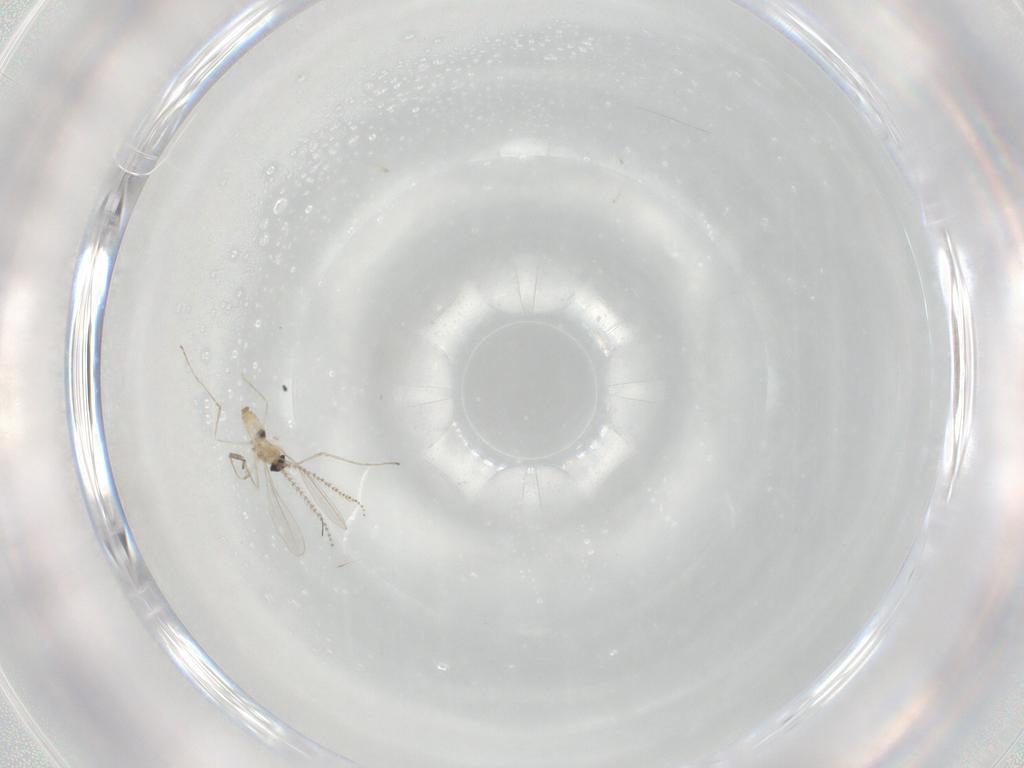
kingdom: Animalia
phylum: Arthropoda
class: Insecta
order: Diptera
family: Cecidomyiidae
